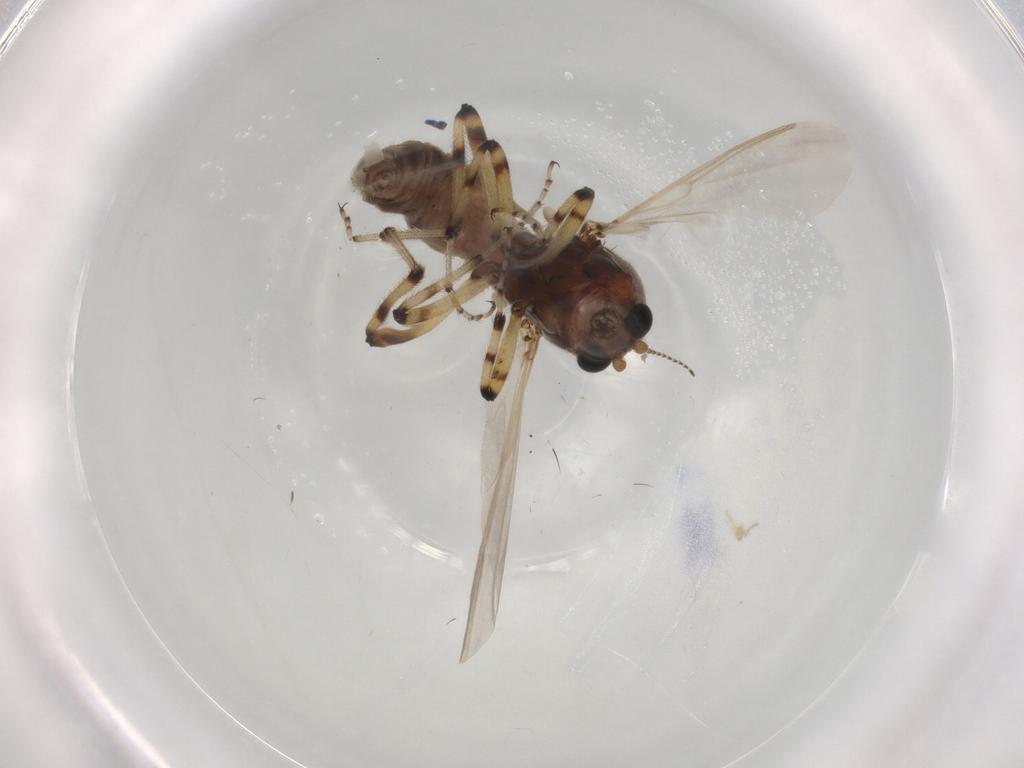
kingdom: Animalia
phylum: Arthropoda
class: Insecta
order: Diptera
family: Ceratopogonidae
